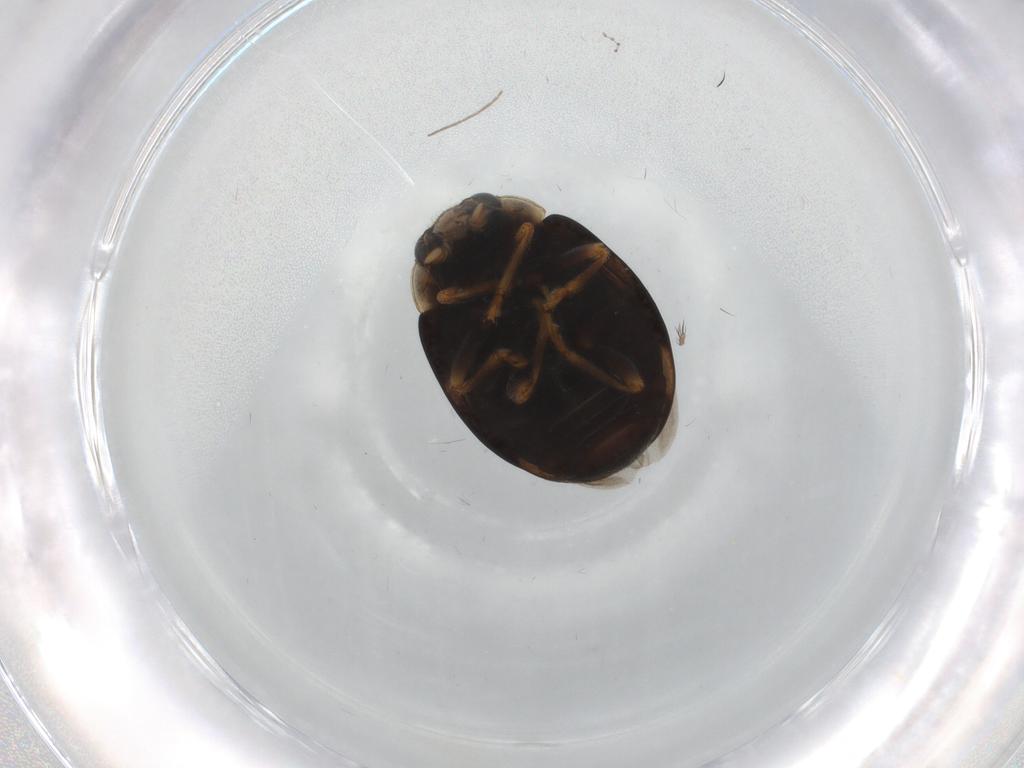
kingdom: Animalia
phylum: Arthropoda
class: Insecta
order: Coleoptera
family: Coccinellidae
